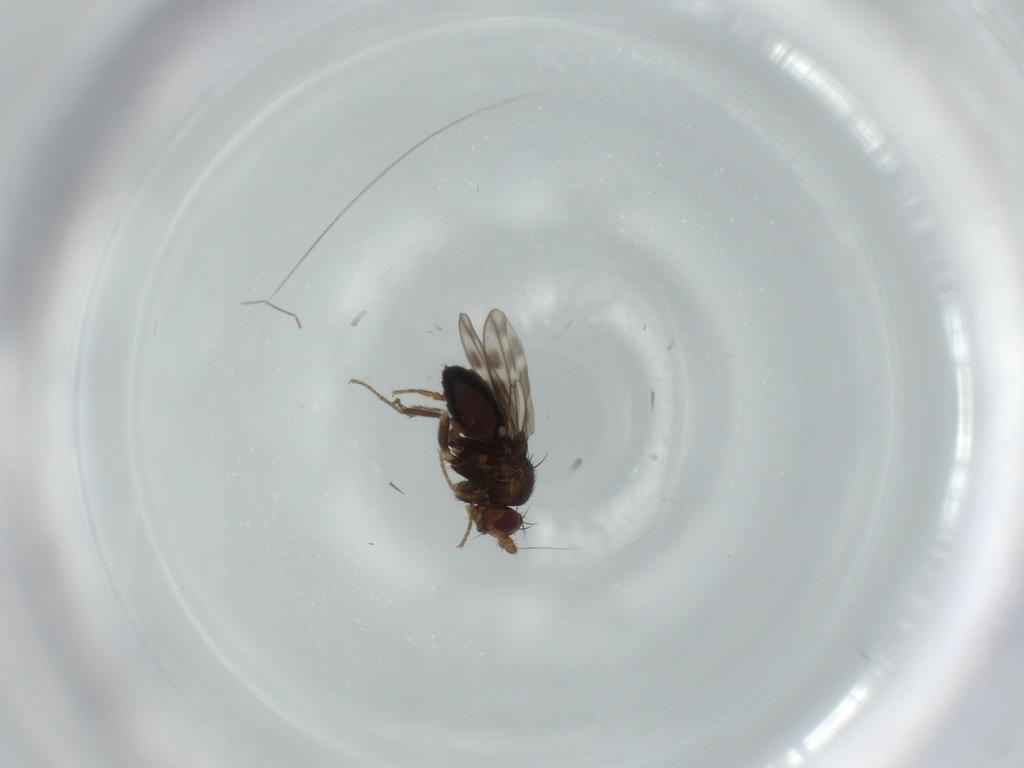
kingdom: Animalia
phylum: Arthropoda
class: Insecta
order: Diptera
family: Sphaeroceridae
